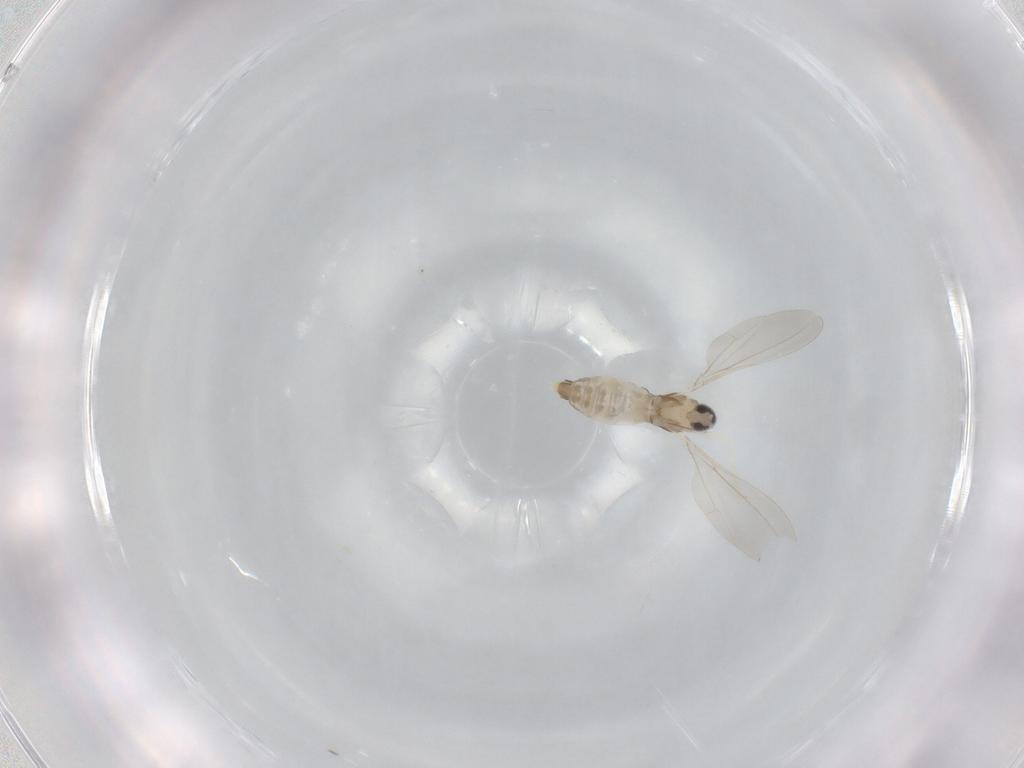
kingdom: Animalia
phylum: Arthropoda
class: Insecta
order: Diptera
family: Cecidomyiidae
